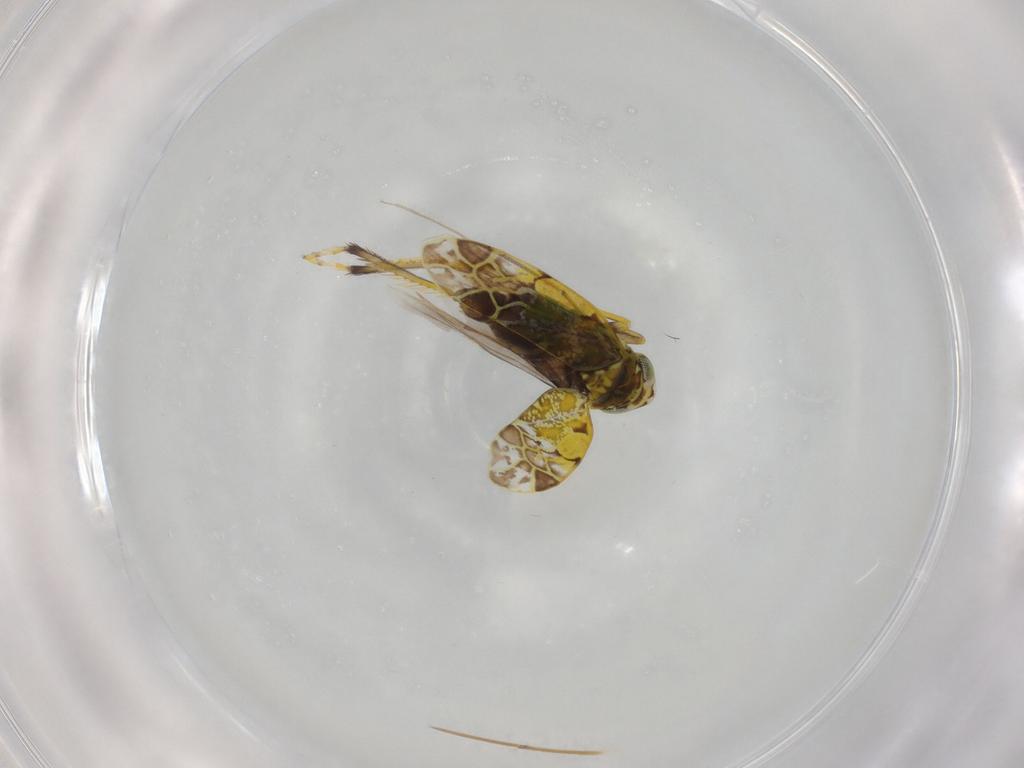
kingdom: Animalia
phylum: Arthropoda
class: Insecta
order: Hemiptera
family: Cicadellidae
